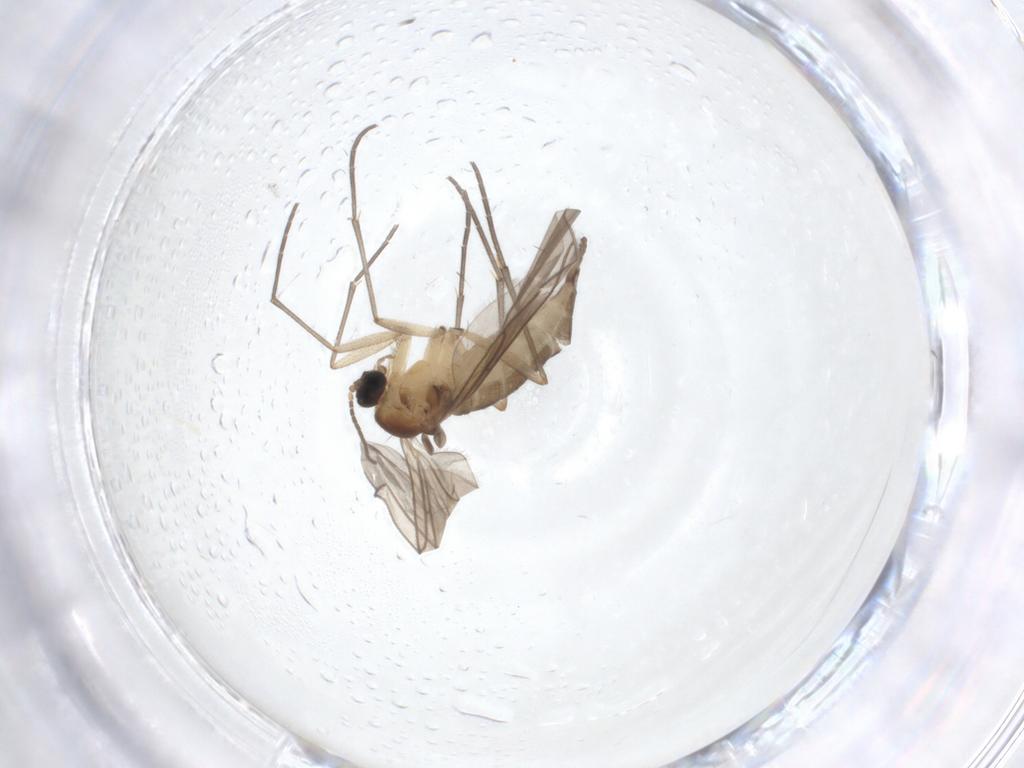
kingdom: Animalia
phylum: Arthropoda
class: Insecta
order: Diptera
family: Sciaridae
